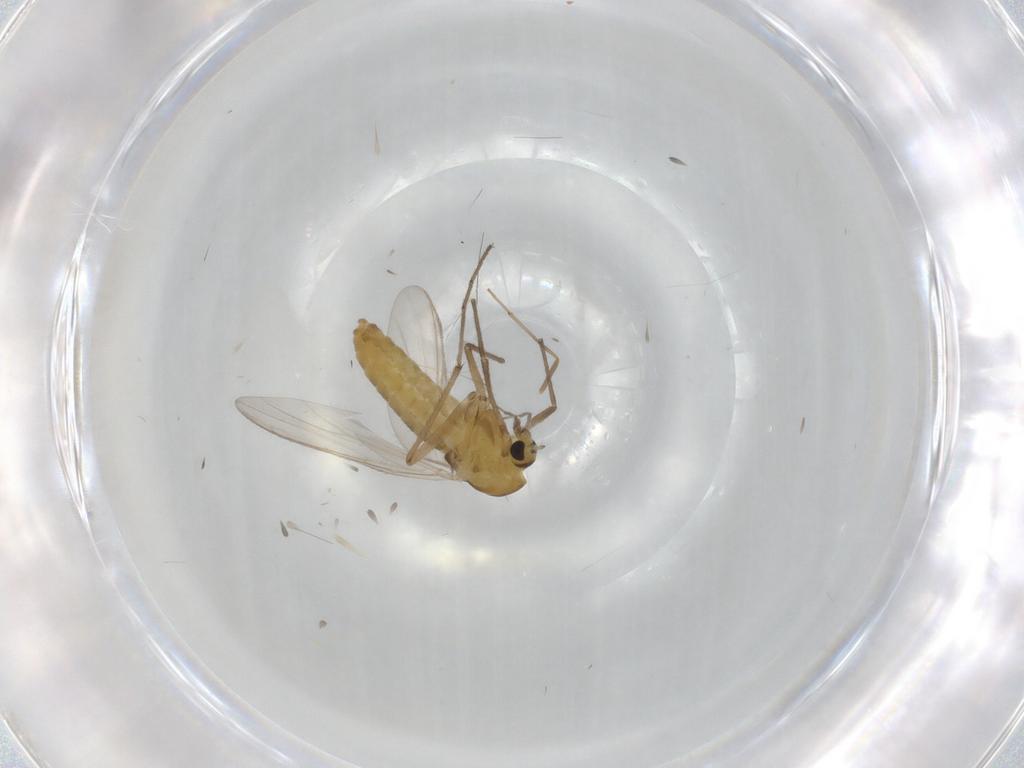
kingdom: Animalia
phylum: Arthropoda
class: Insecta
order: Diptera
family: Chironomidae
